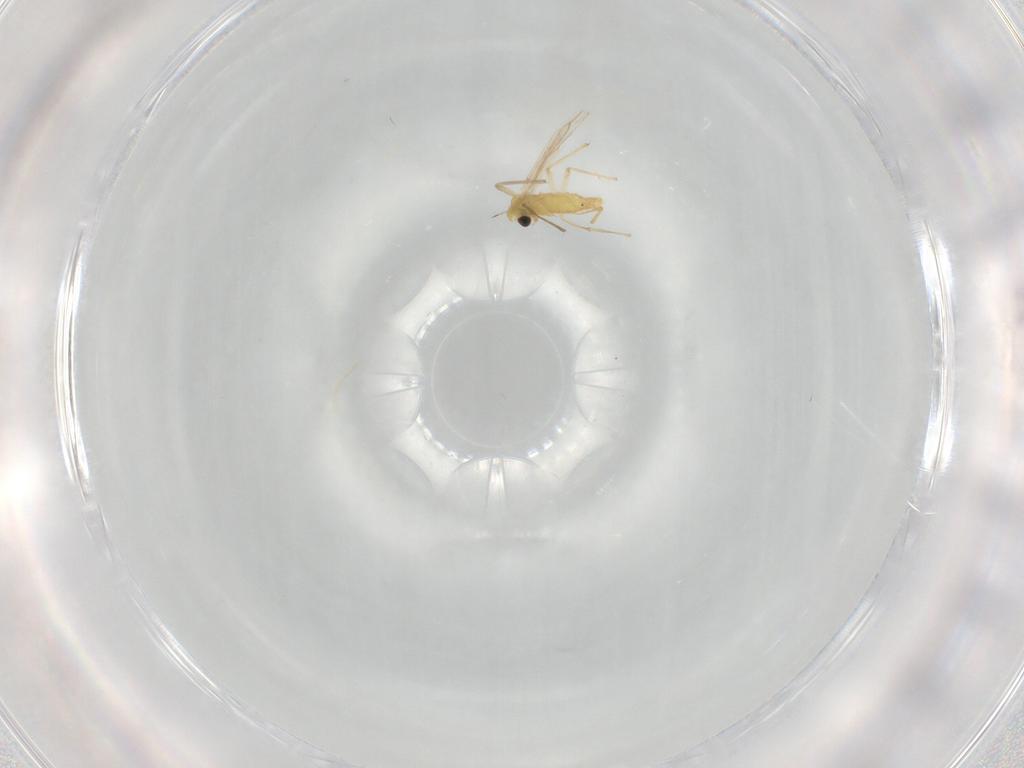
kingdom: Animalia
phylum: Arthropoda
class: Insecta
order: Diptera
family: Chironomidae
